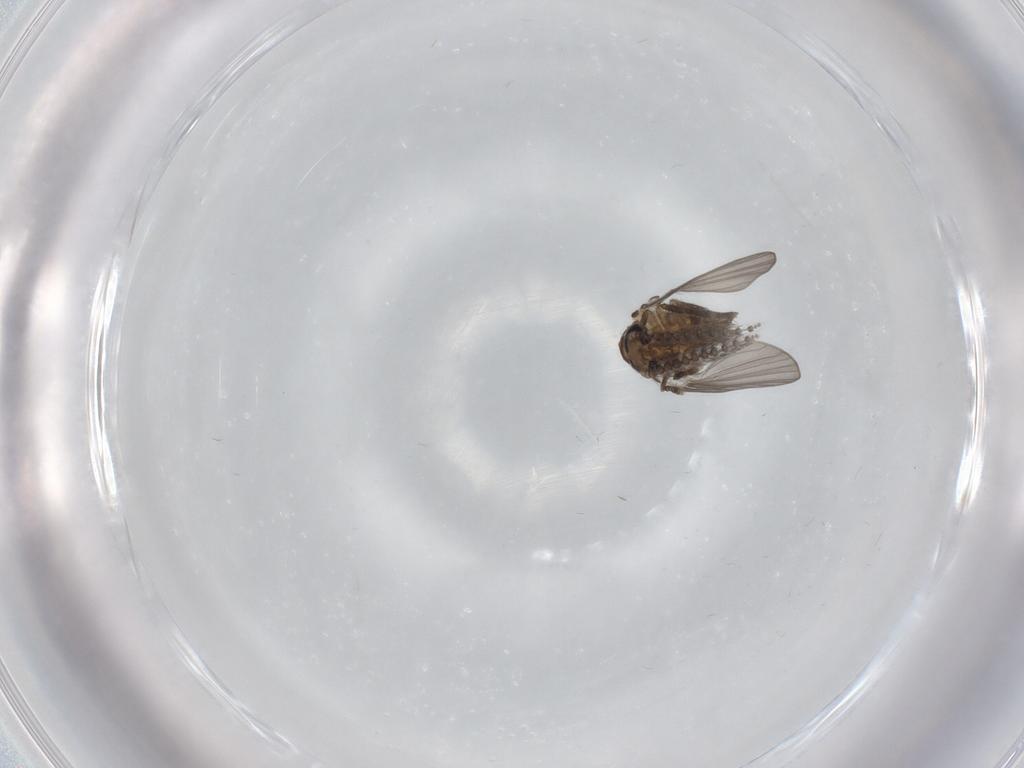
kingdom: Animalia
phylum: Arthropoda
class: Insecta
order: Diptera
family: Psychodidae
